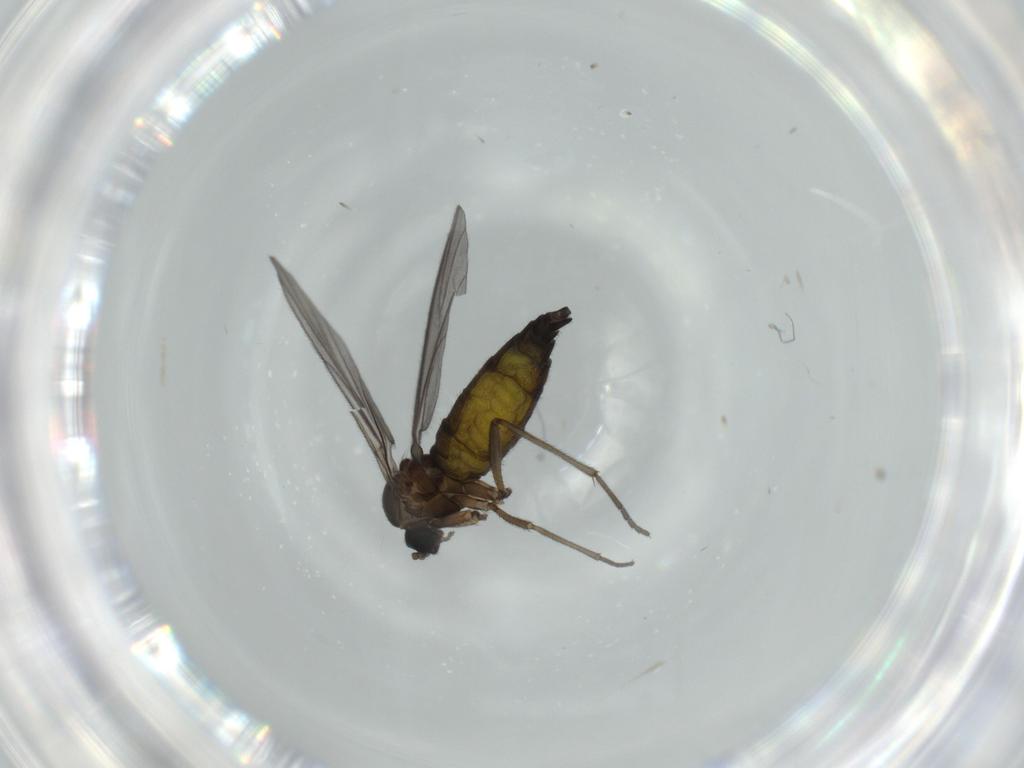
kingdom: Animalia
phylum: Arthropoda
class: Insecta
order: Diptera
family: Sciaridae
